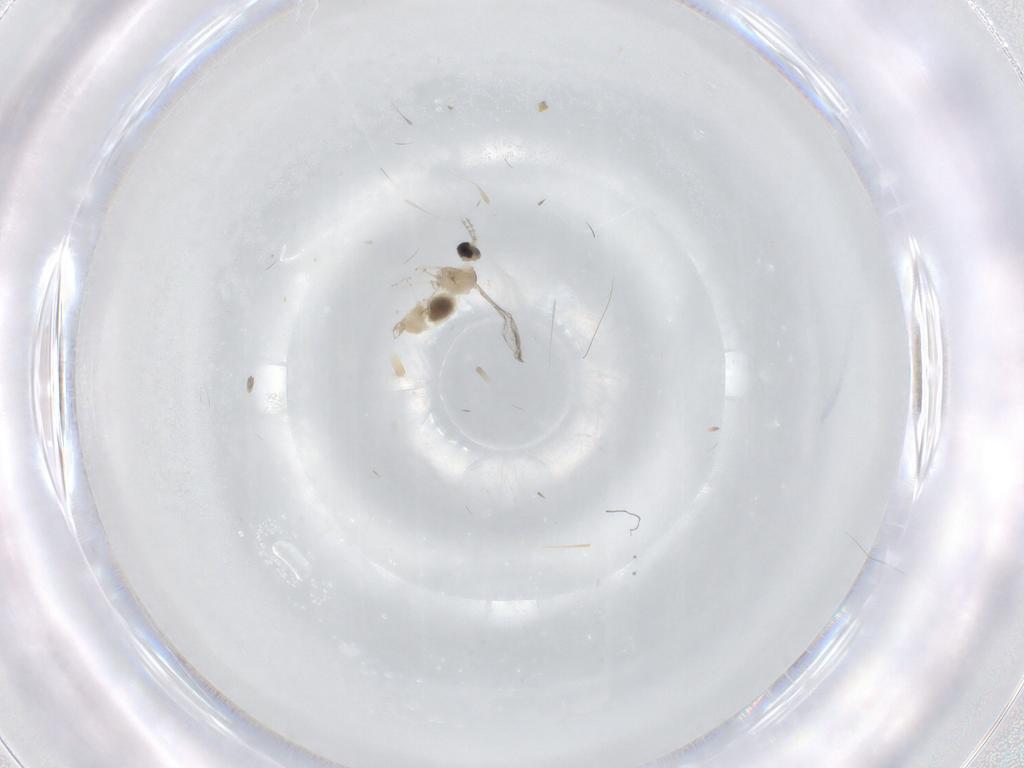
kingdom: Animalia
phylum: Arthropoda
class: Insecta
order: Diptera
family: Cecidomyiidae
